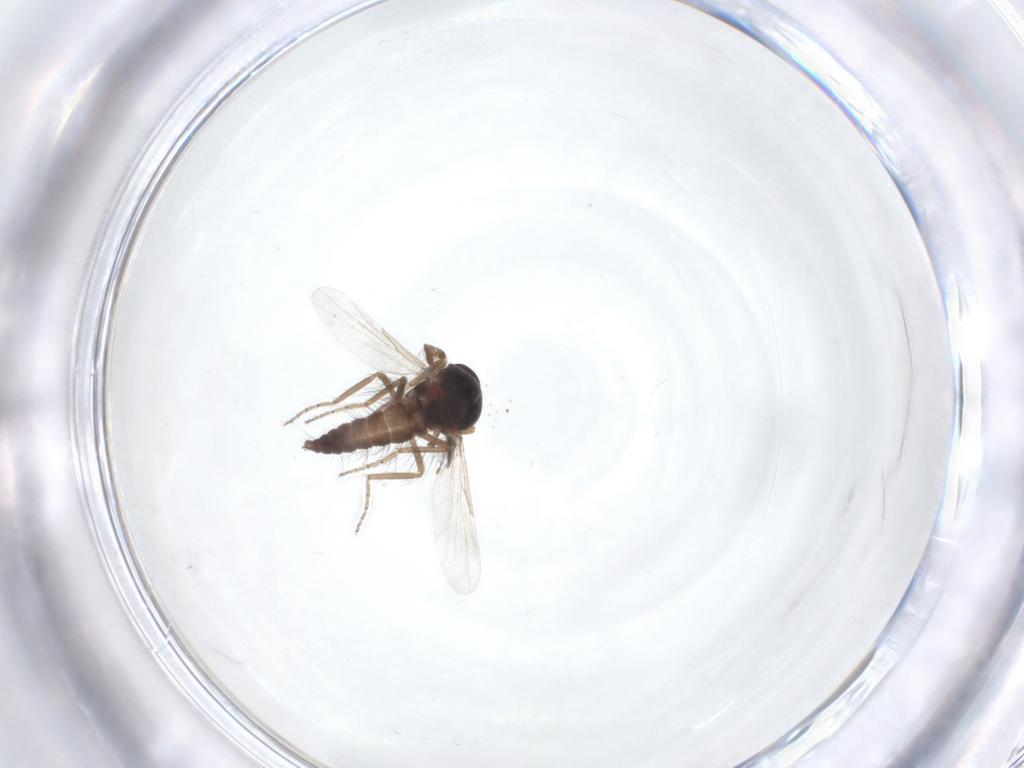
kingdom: Animalia
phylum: Arthropoda
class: Insecta
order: Diptera
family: Ceratopogonidae
